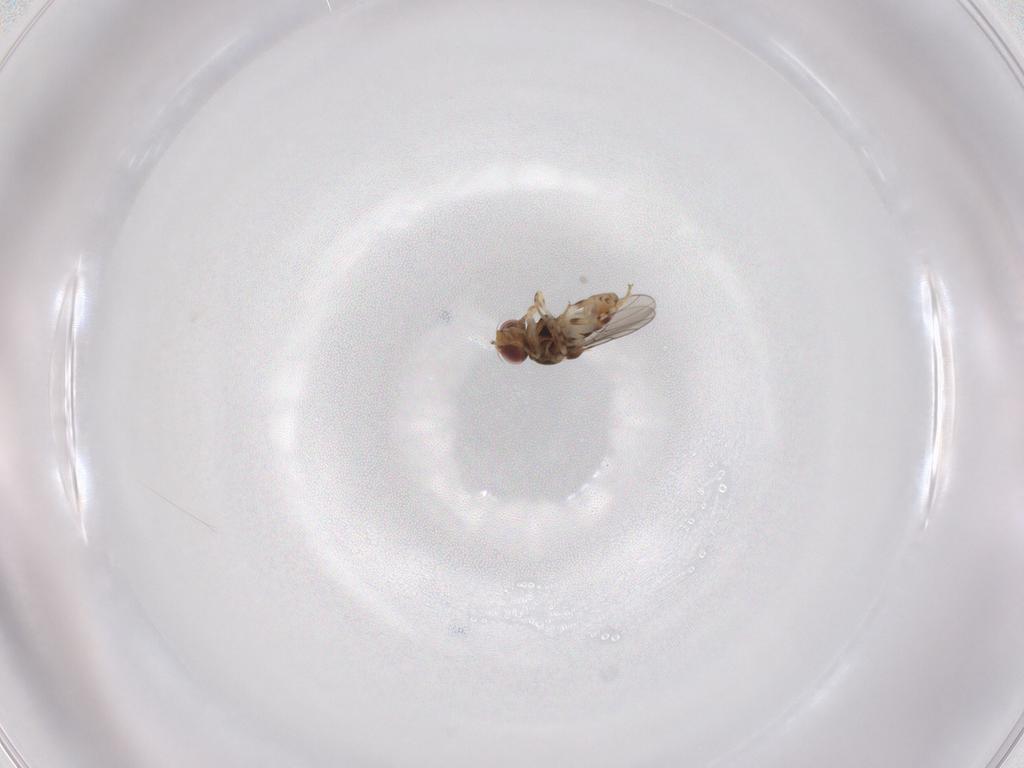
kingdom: Animalia
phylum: Arthropoda
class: Insecta
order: Diptera
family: Chloropidae
